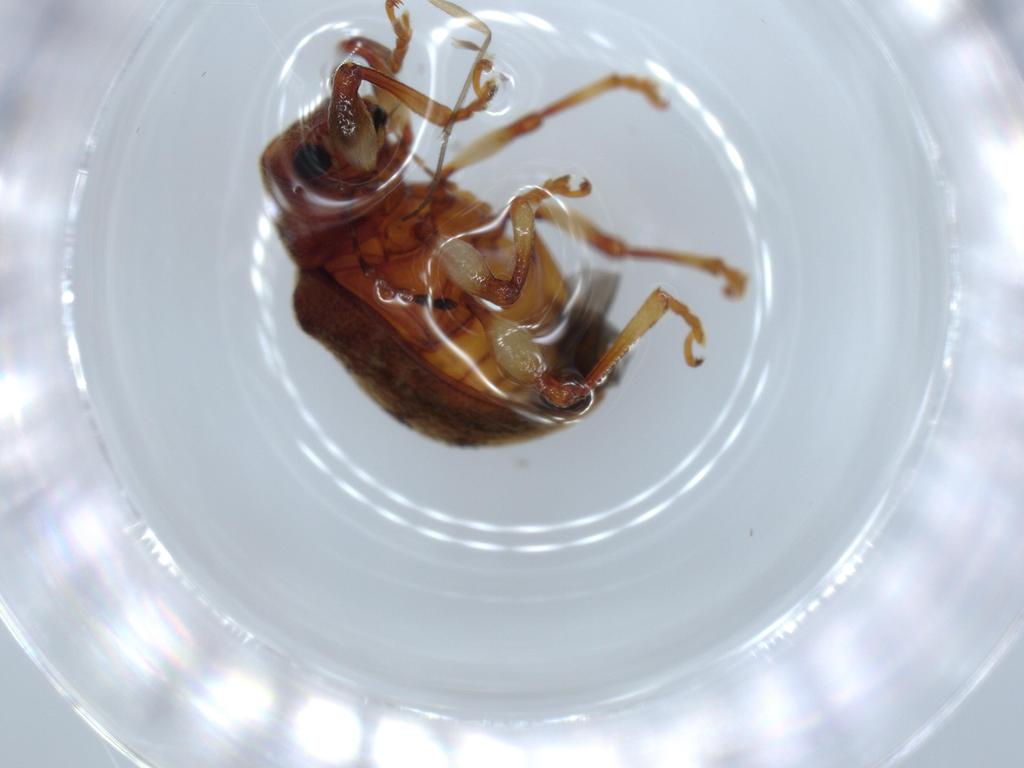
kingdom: Animalia
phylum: Arthropoda
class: Insecta
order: Coleoptera
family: Chrysomelidae
